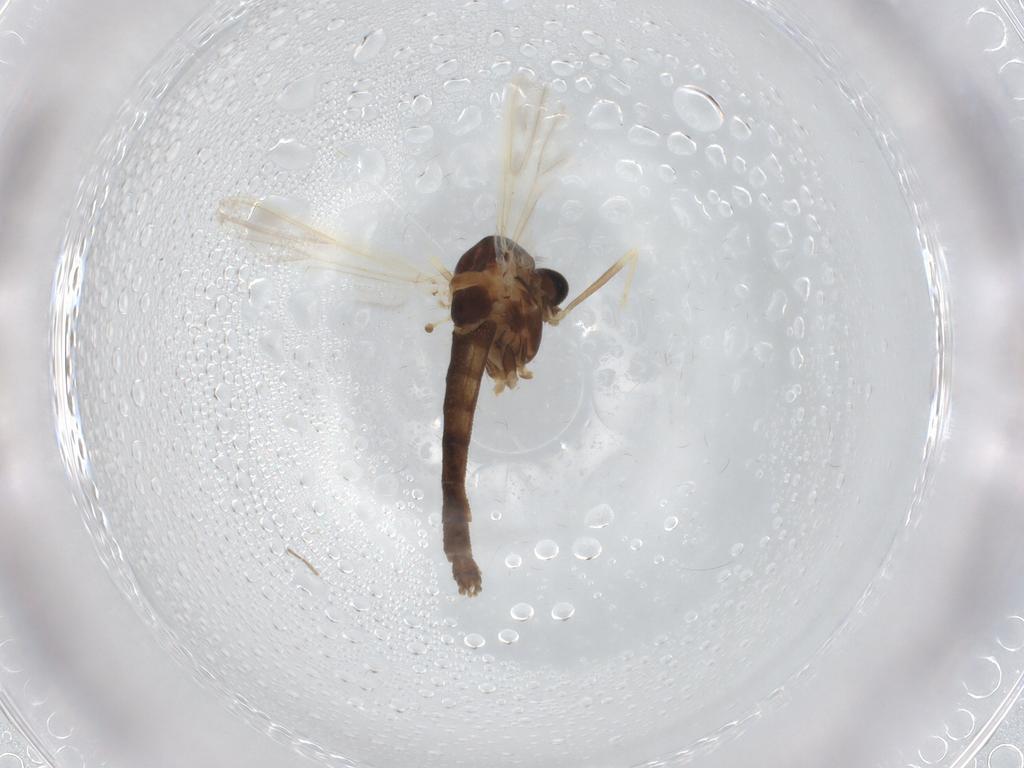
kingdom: Animalia
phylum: Arthropoda
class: Insecta
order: Diptera
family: Chironomidae
